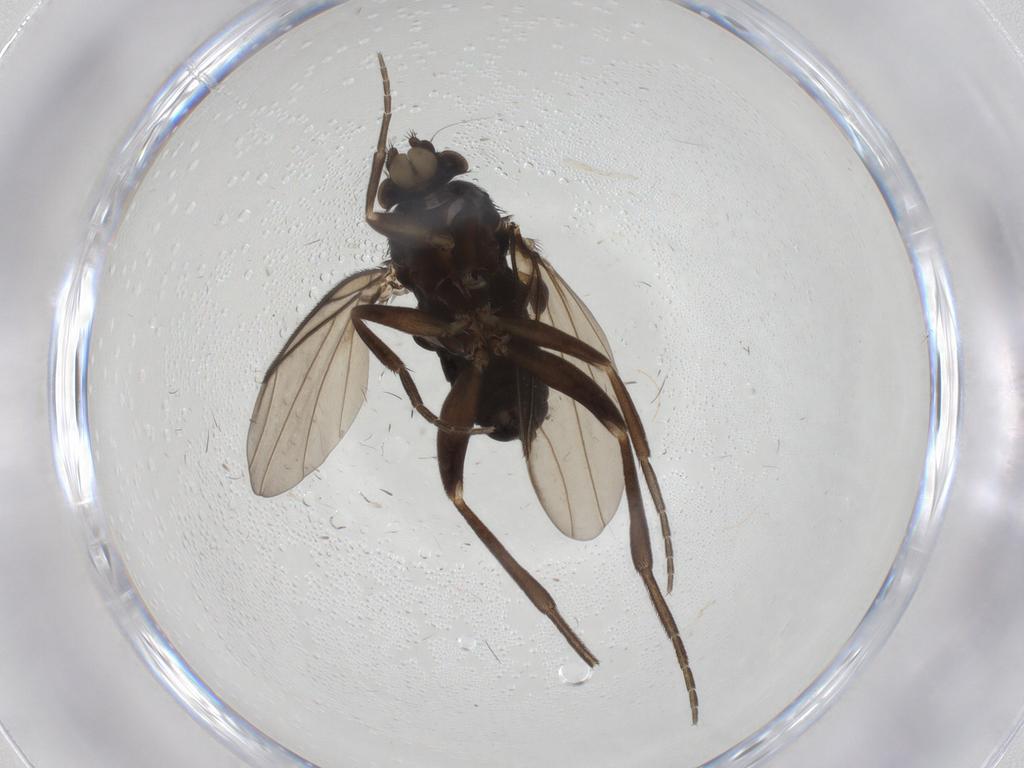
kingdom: Animalia
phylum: Arthropoda
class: Insecta
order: Diptera
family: Phoridae
